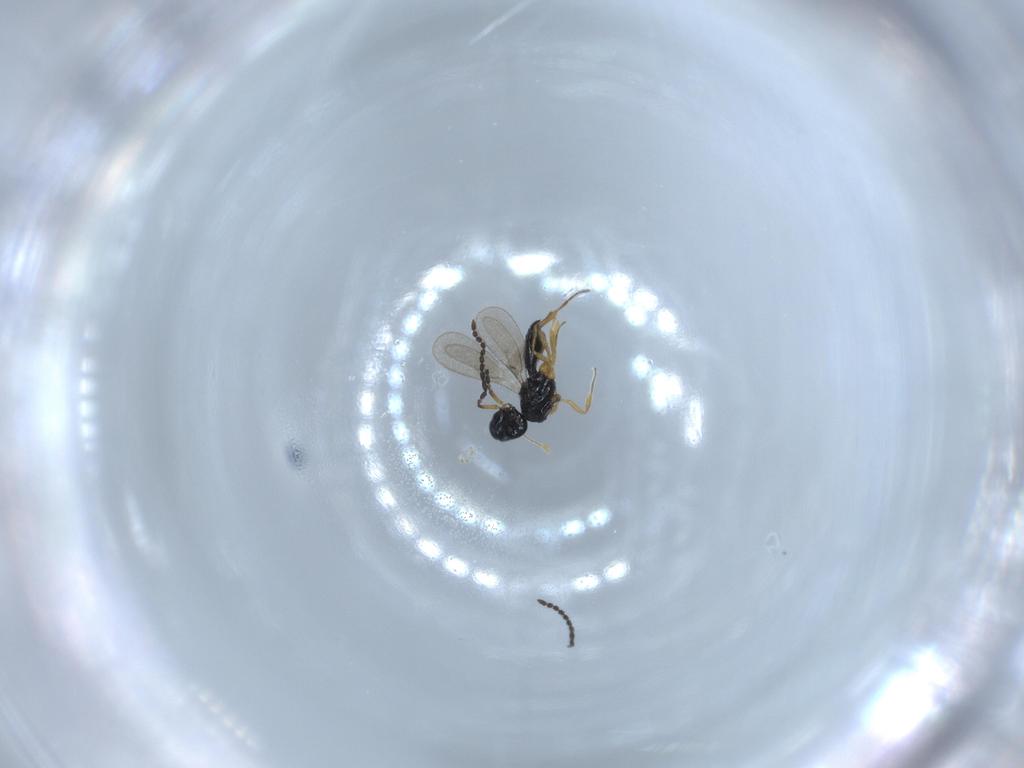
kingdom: Animalia
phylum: Arthropoda
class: Insecta
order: Hymenoptera
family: Scelionidae
